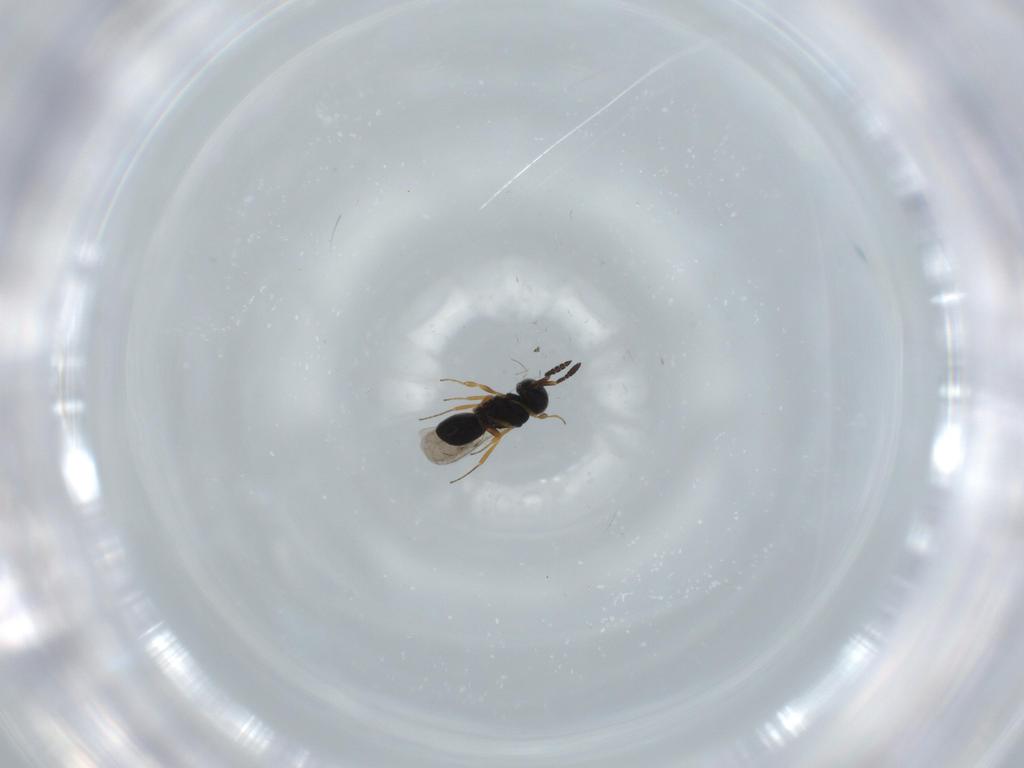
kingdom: Animalia
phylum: Arthropoda
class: Insecta
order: Hymenoptera
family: Scelionidae
